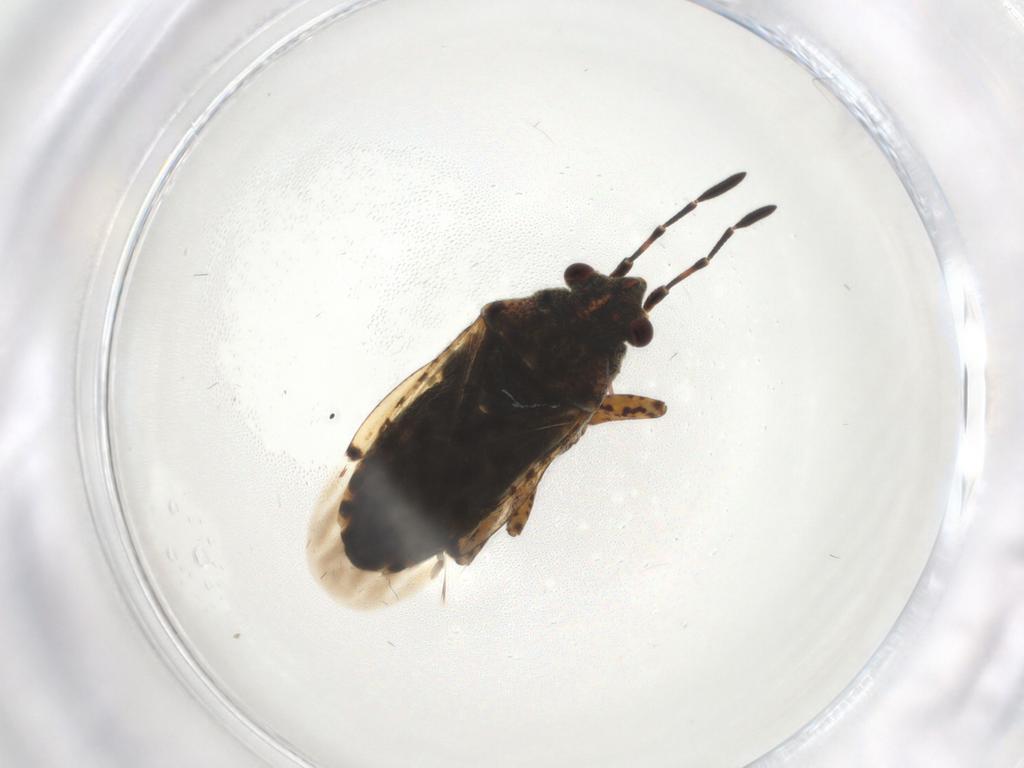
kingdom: Animalia
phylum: Arthropoda
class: Insecta
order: Hemiptera
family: Lygaeidae
